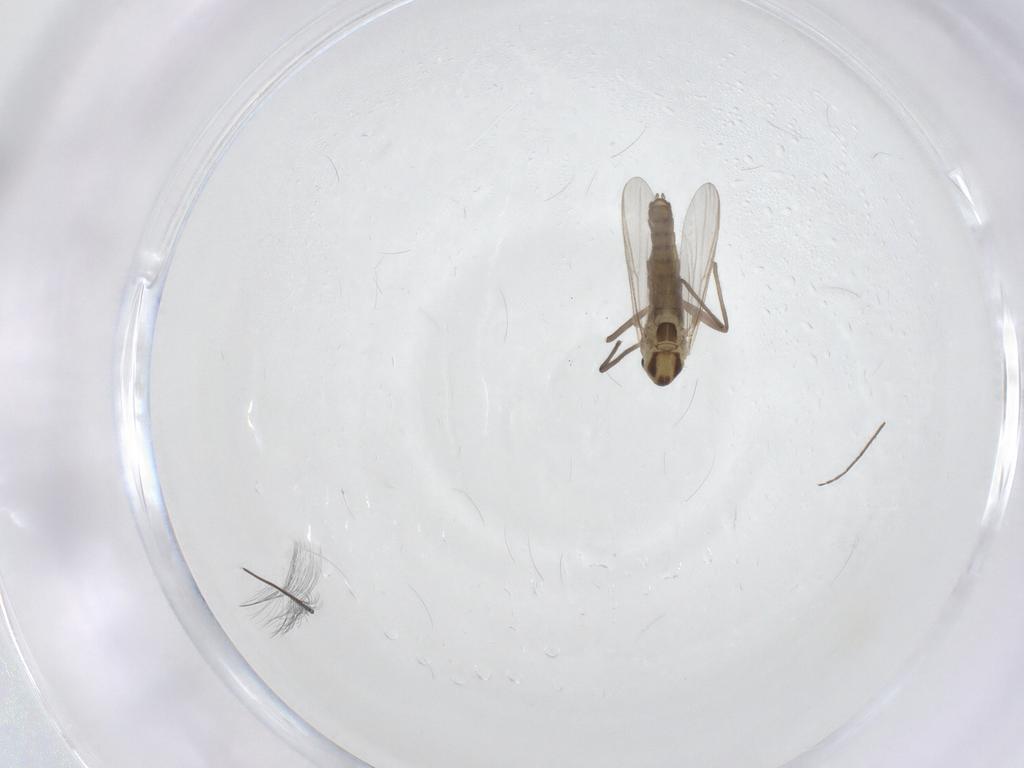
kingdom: Animalia
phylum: Arthropoda
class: Insecta
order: Diptera
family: Chironomidae
